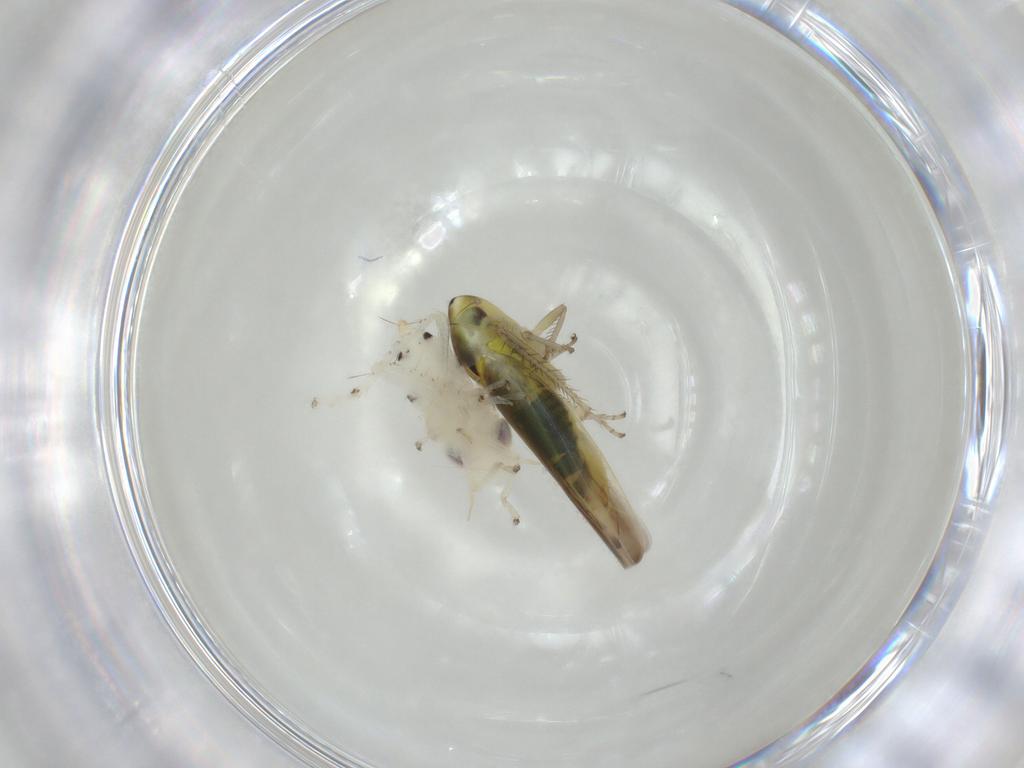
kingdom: Animalia
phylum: Arthropoda
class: Insecta
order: Hemiptera
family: Cicadellidae
